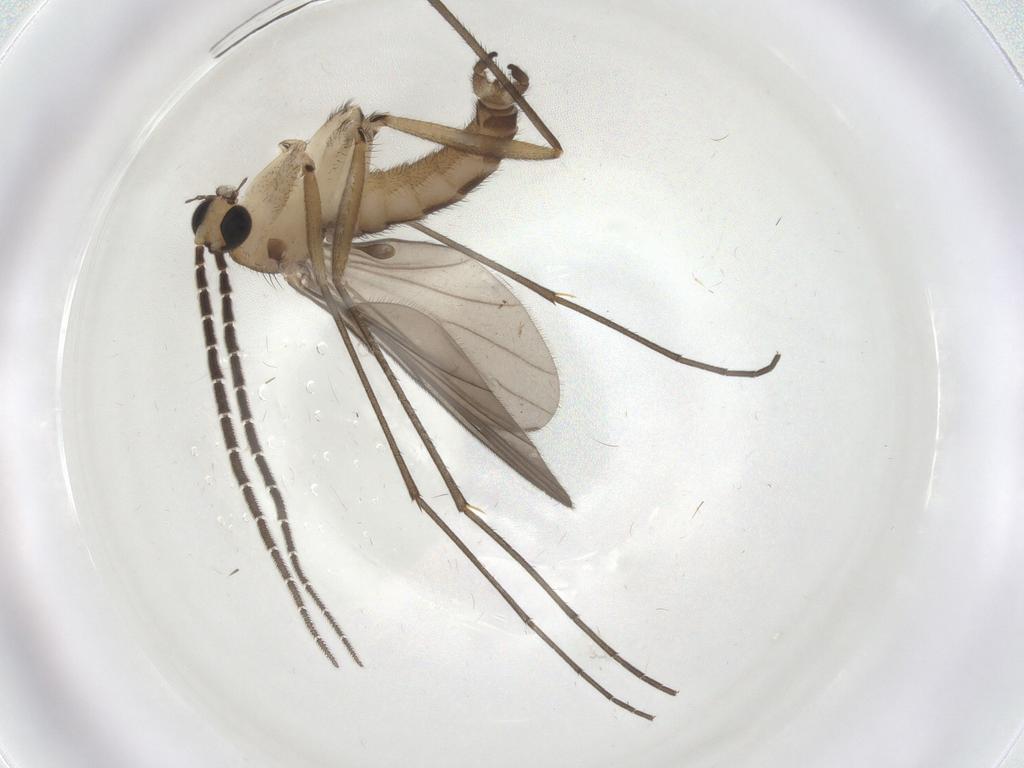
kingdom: Animalia
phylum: Arthropoda
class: Insecta
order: Diptera
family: Sciaridae
